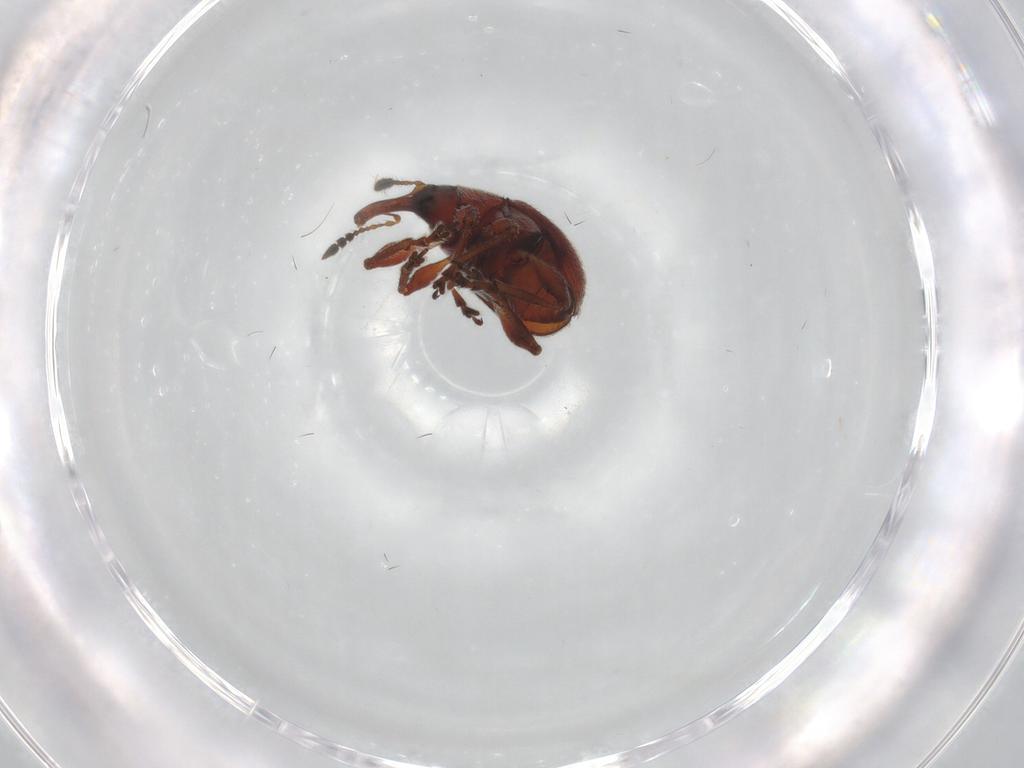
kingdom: Animalia
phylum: Arthropoda
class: Insecta
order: Coleoptera
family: Brentidae
